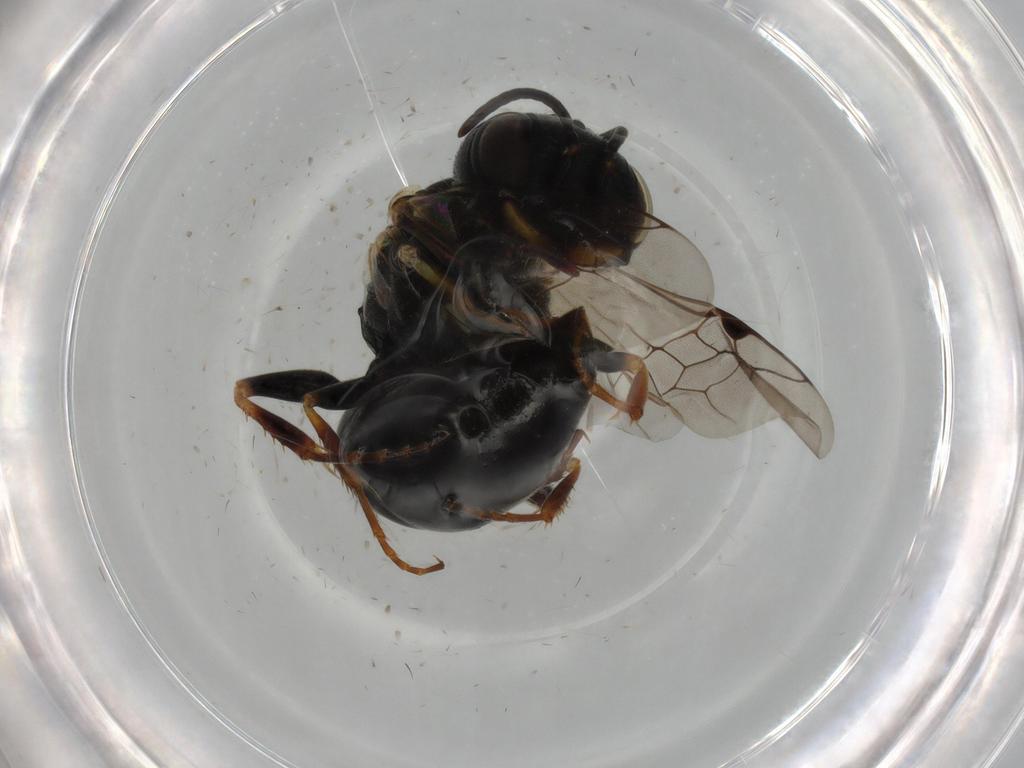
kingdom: Animalia
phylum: Arthropoda
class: Insecta
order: Hymenoptera
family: Crabronidae
